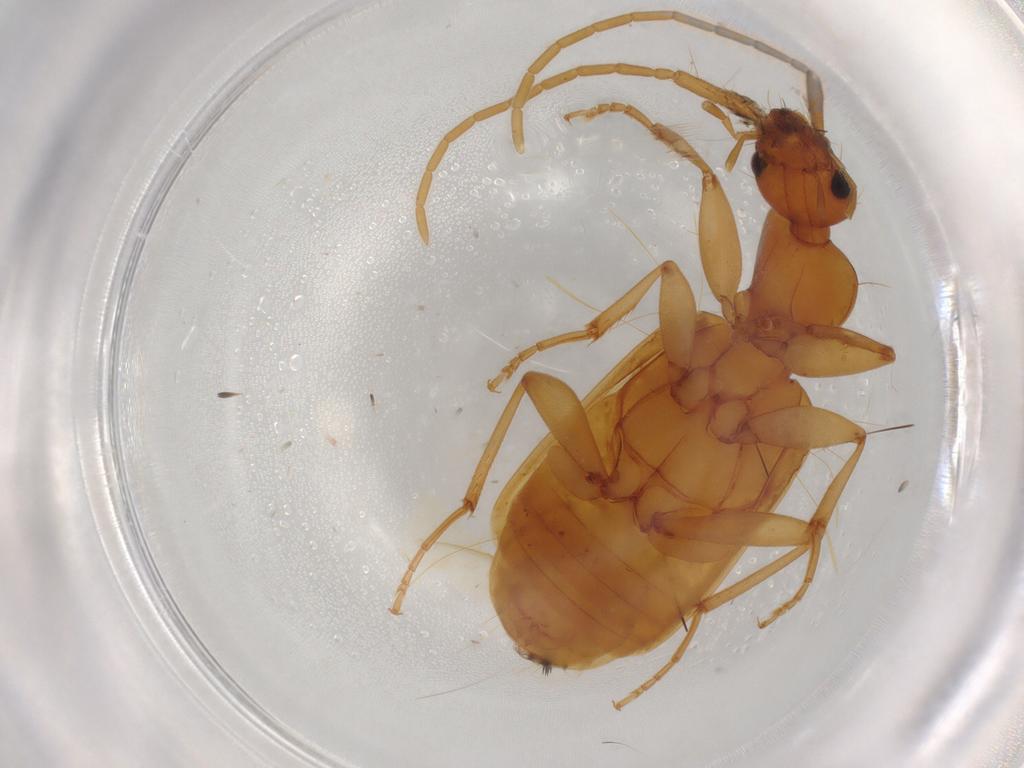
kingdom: Animalia
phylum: Arthropoda
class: Insecta
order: Coleoptera
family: Carabidae
